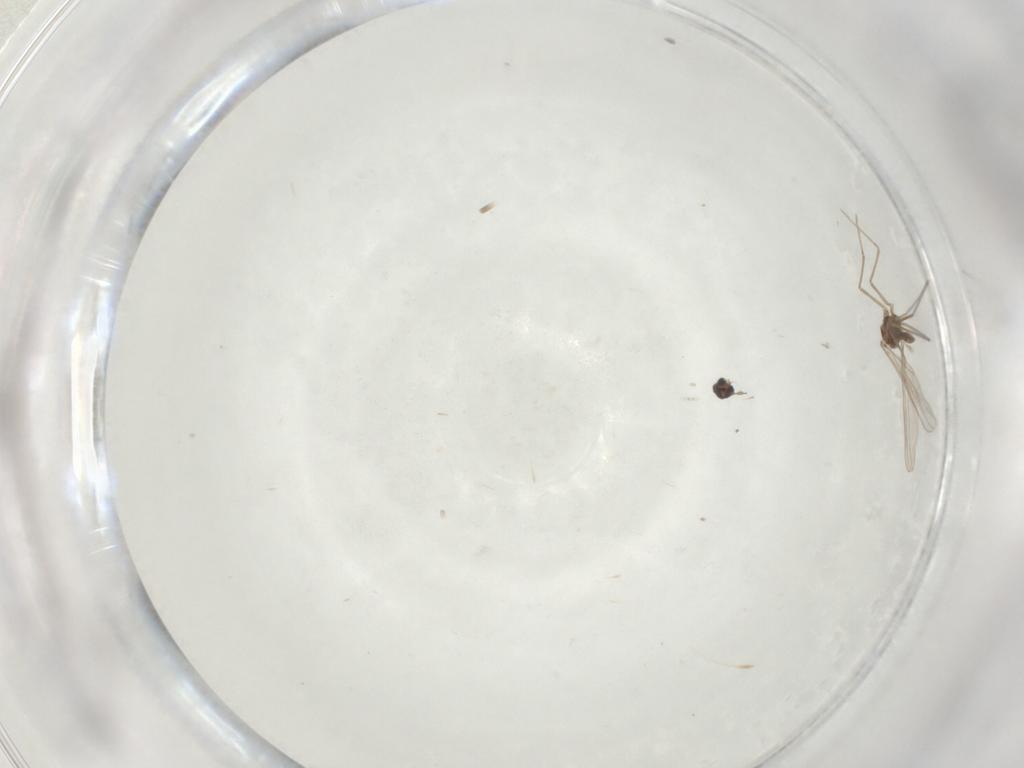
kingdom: Animalia
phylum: Arthropoda
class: Insecta
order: Diptera
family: Cecidomyiidae
